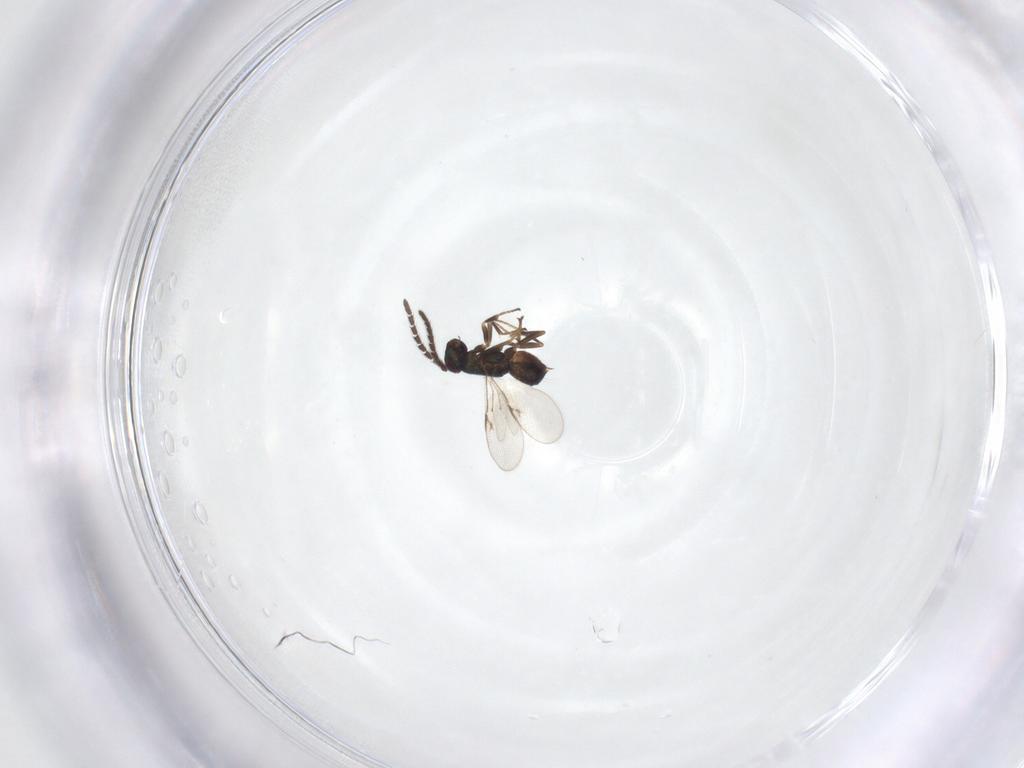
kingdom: Animalia
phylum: Arthropoda
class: Insecta
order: Hymenoptera
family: Encyrtidae
